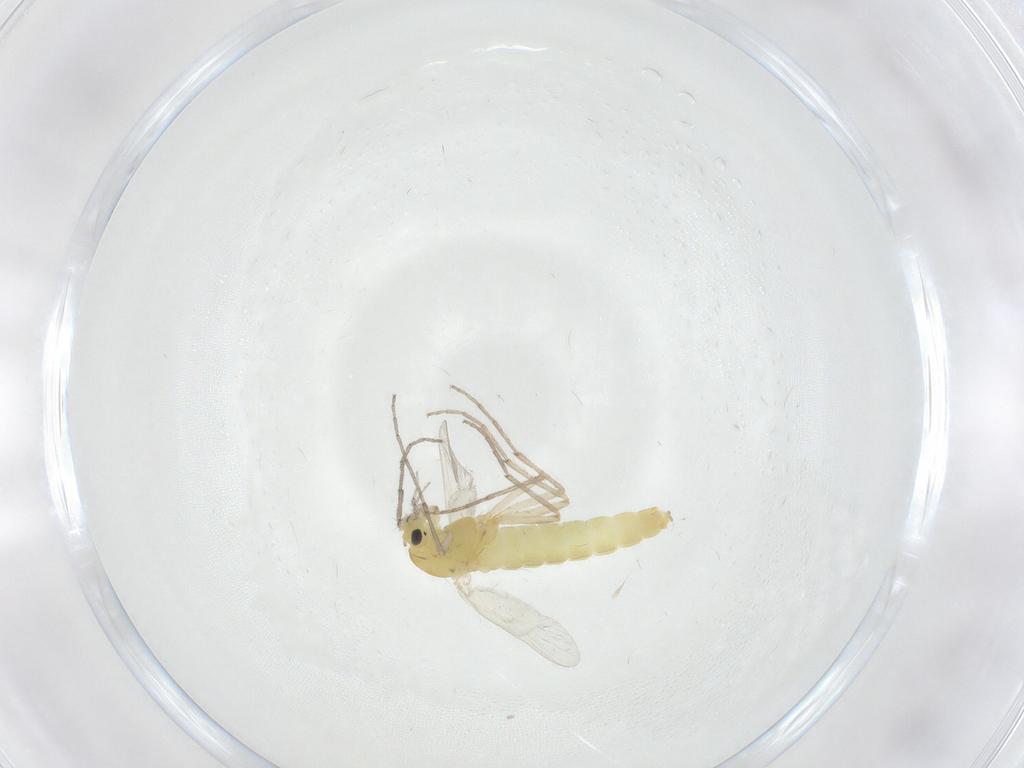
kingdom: Animalia
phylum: Arthropoda
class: Insecta
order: Diptera
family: Chironomidae
